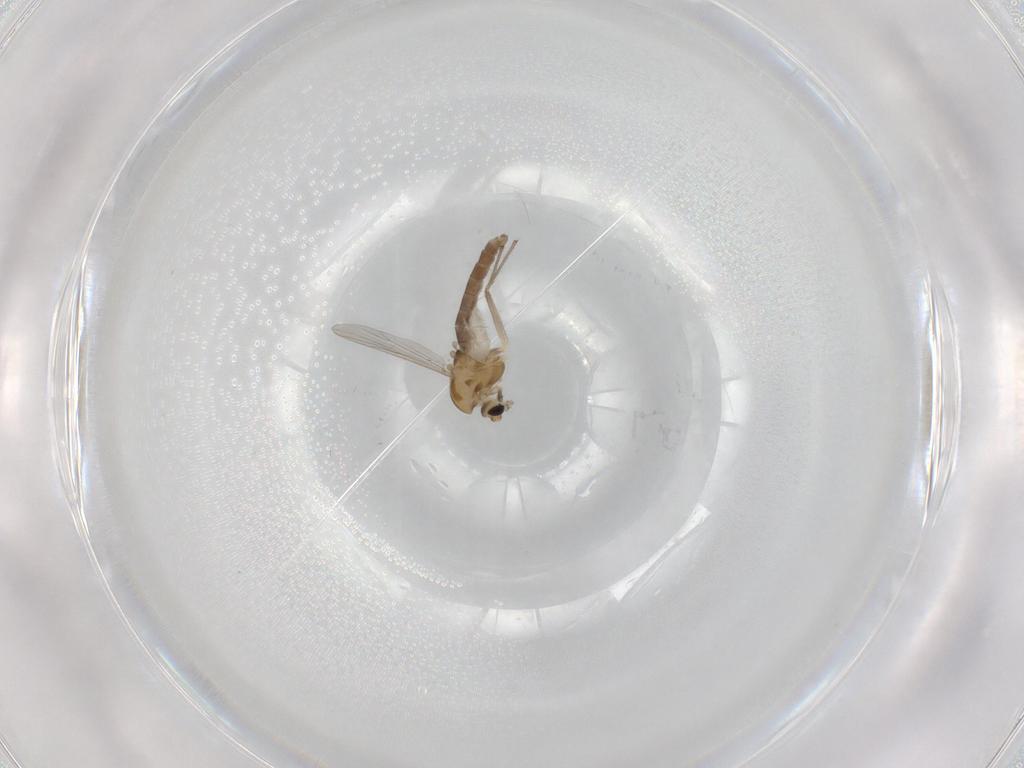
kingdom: Animalia
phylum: Arthropoda
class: Insecta
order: Diptera
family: Chironomidae
